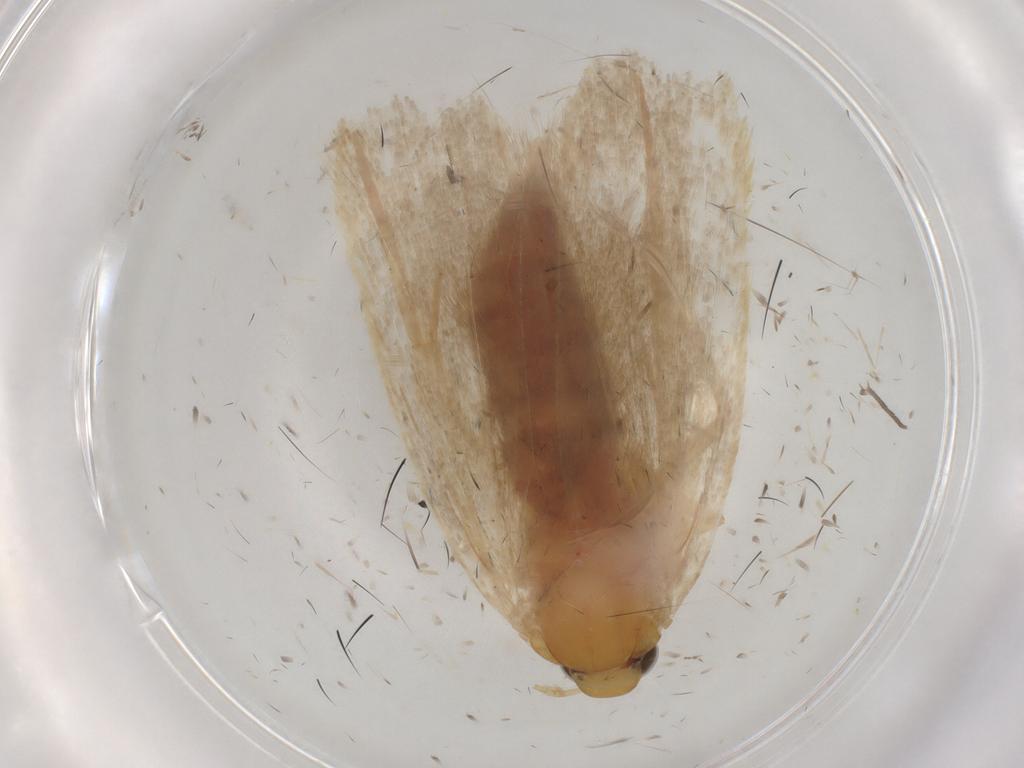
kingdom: Animalia
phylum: Arthropoda
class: Insecta
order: Lepidoptera
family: Autostichidae
